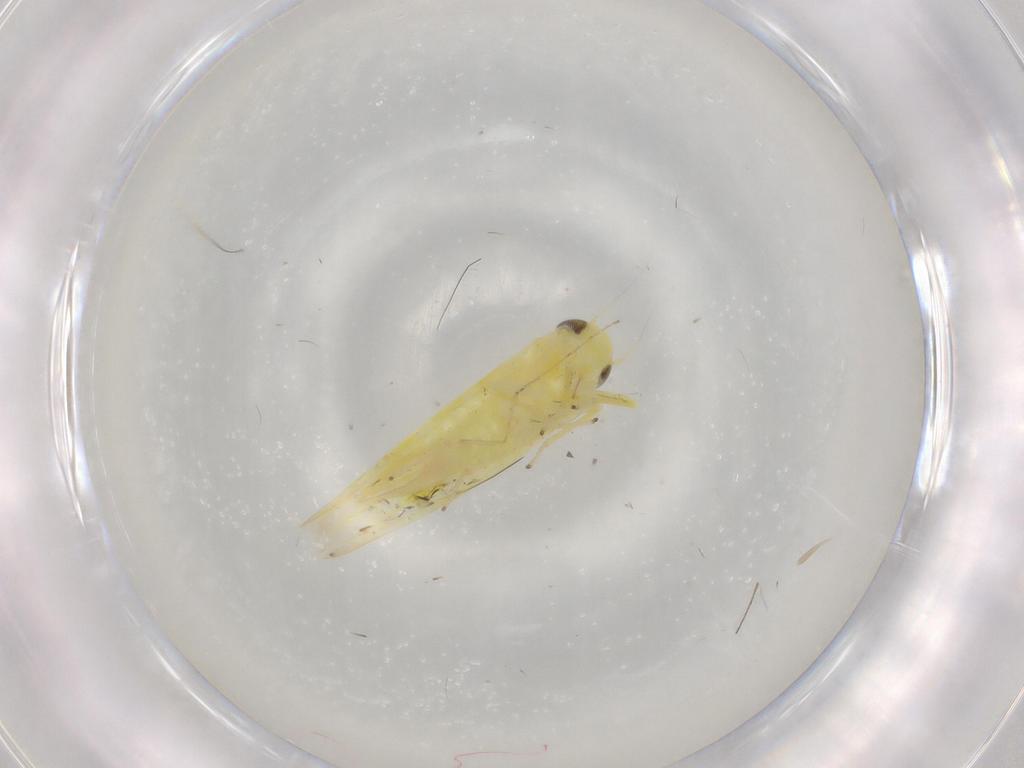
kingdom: Animalia
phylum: Arthropoda
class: Insecta
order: Hemiptera
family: Cicadellidae
